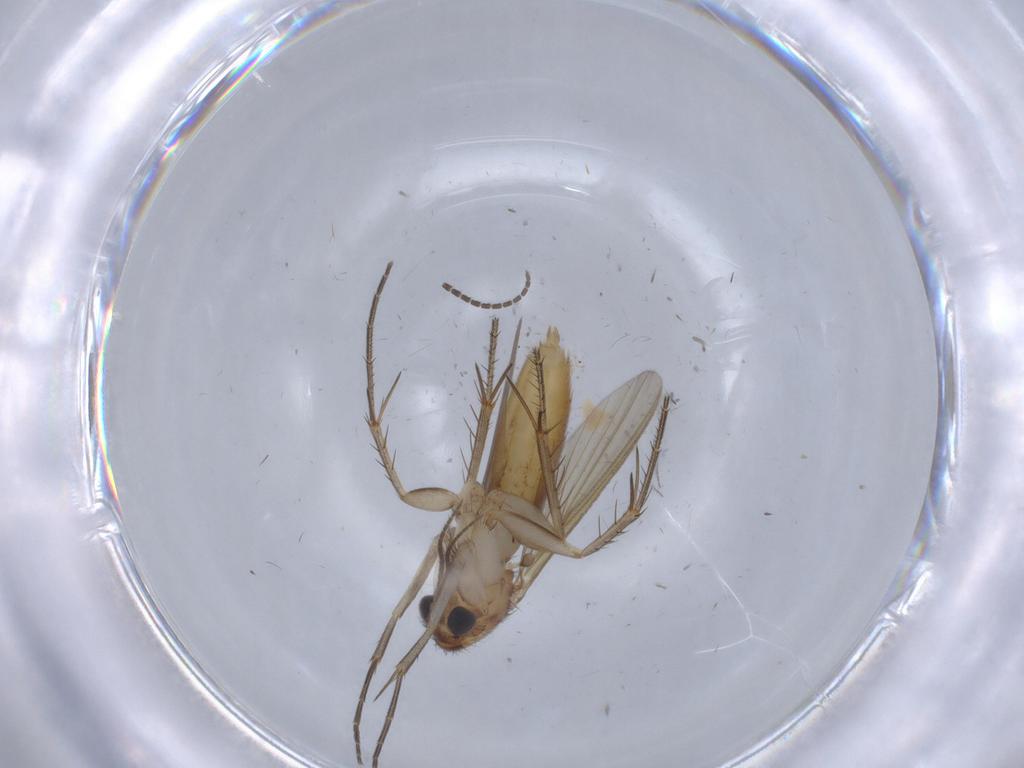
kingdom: Animalia
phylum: Arthropoda
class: Insecta
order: Diptera
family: Mycetophilidae
